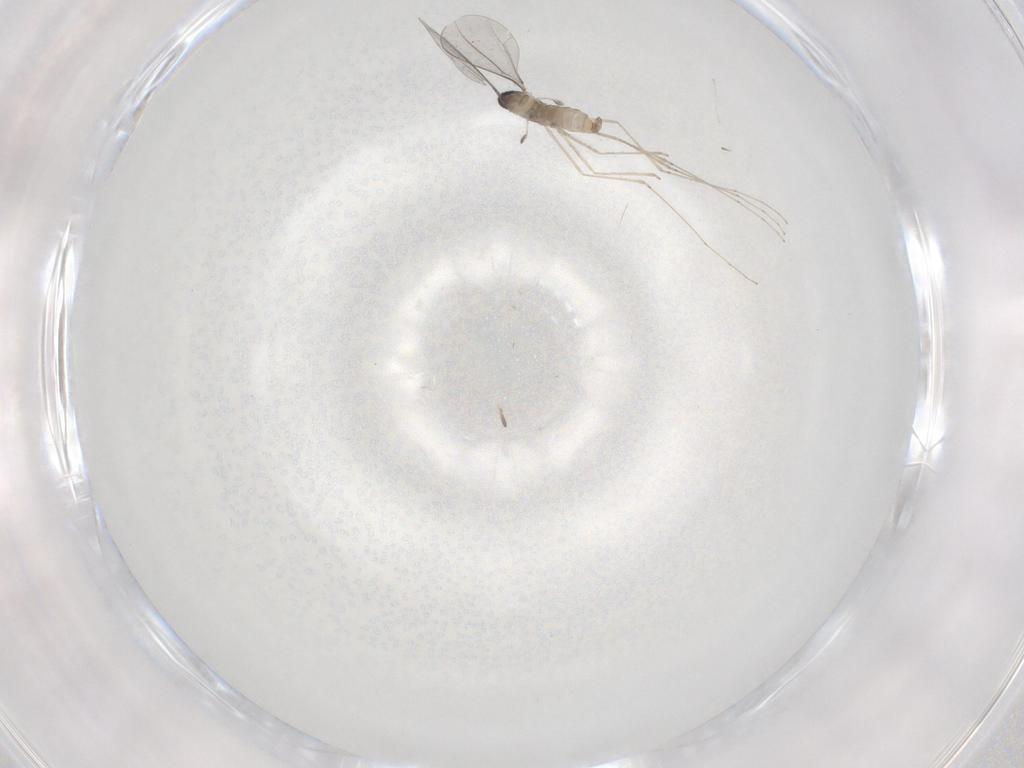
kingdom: Animalia
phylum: Arthropoda
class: Insecta
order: Diptera
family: Cecidomyiidae
